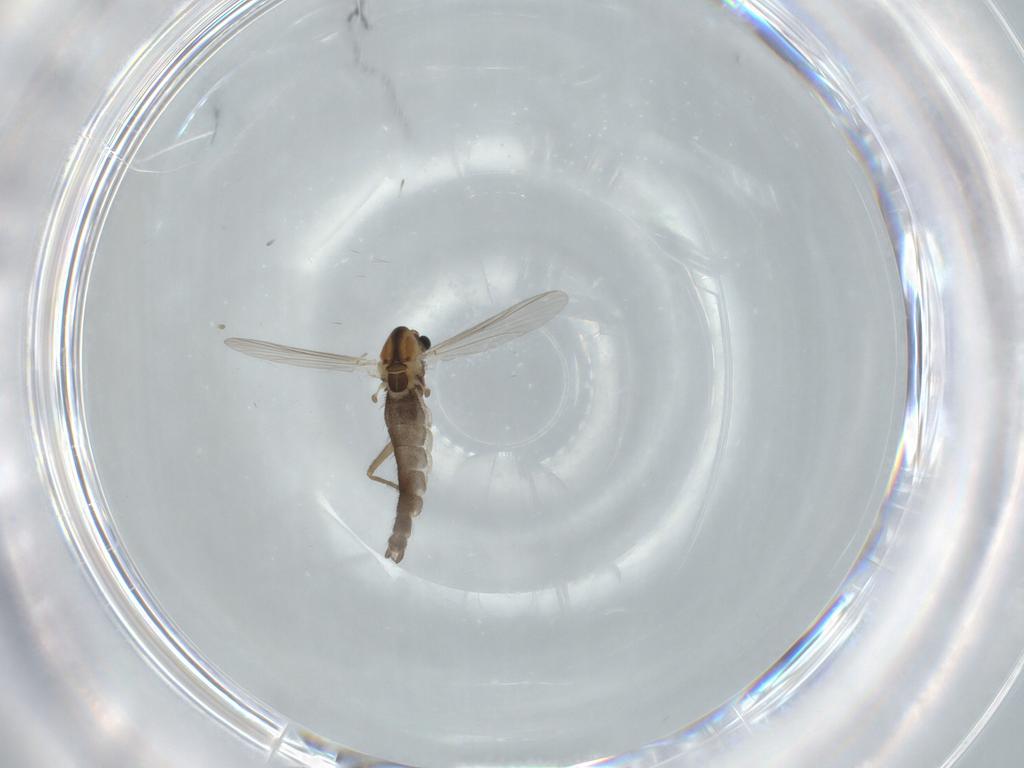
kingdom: Animalia
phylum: Arthropoda
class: Insecta
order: Diptera
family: Chironomidae
